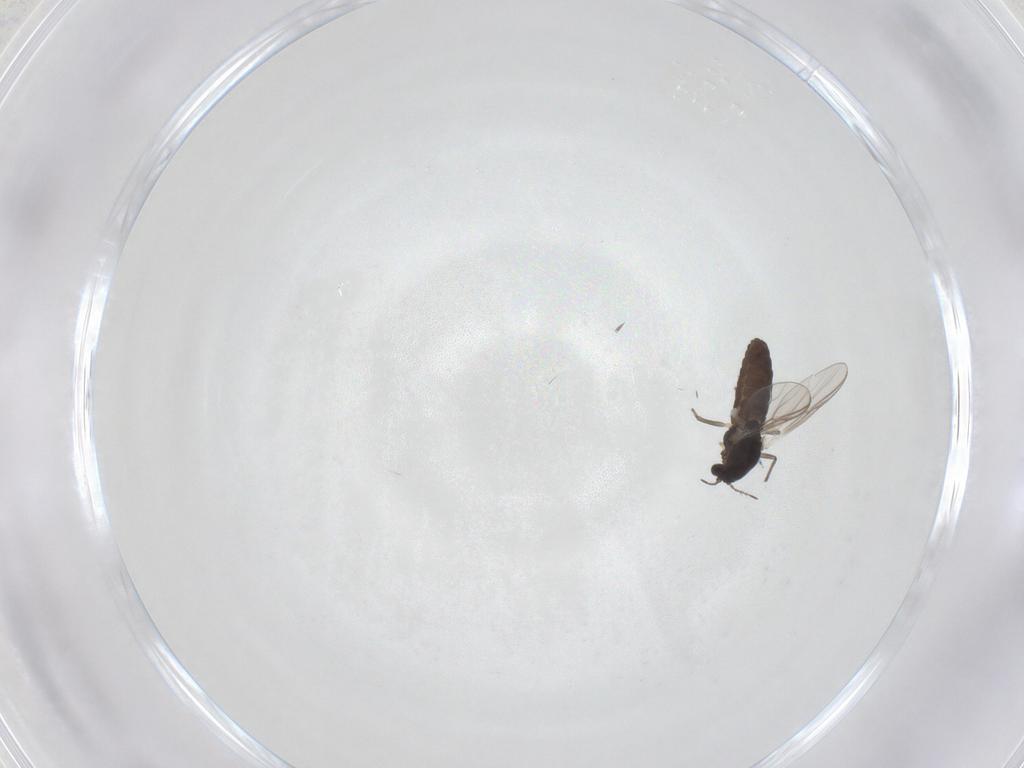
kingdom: Animalia
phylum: Arthropoda
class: Insecta
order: Diptera
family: Chironomidae
